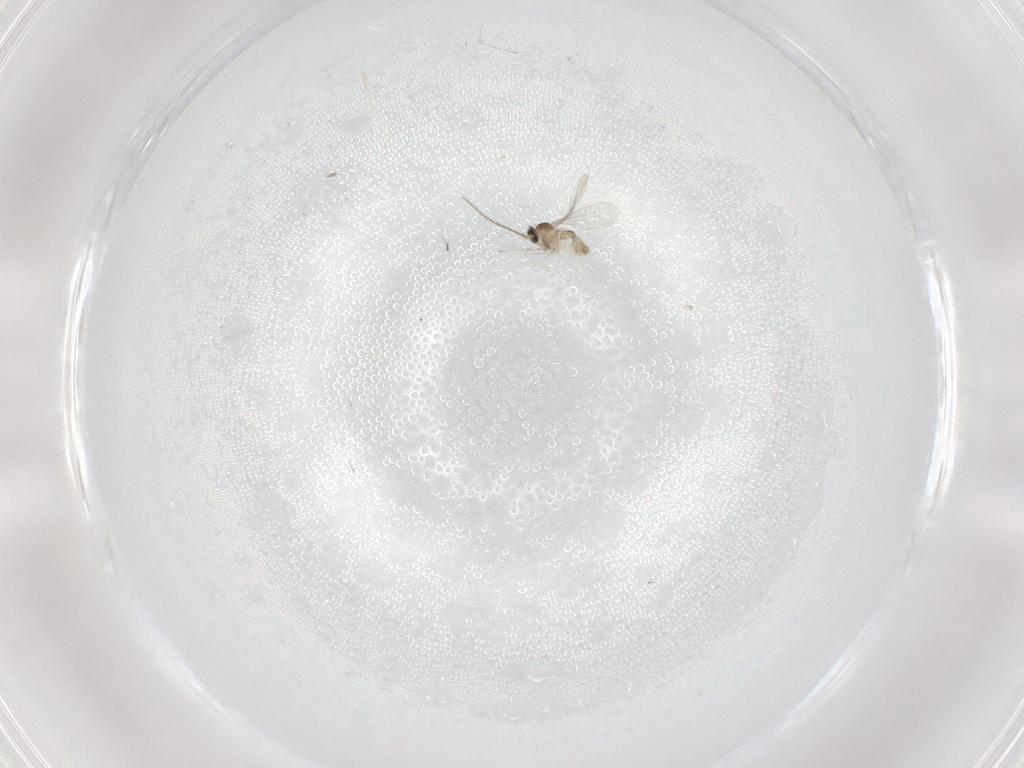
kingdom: Animalia
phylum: Arthropoda
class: Insecta
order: Diptera
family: Cecidomyiidae
